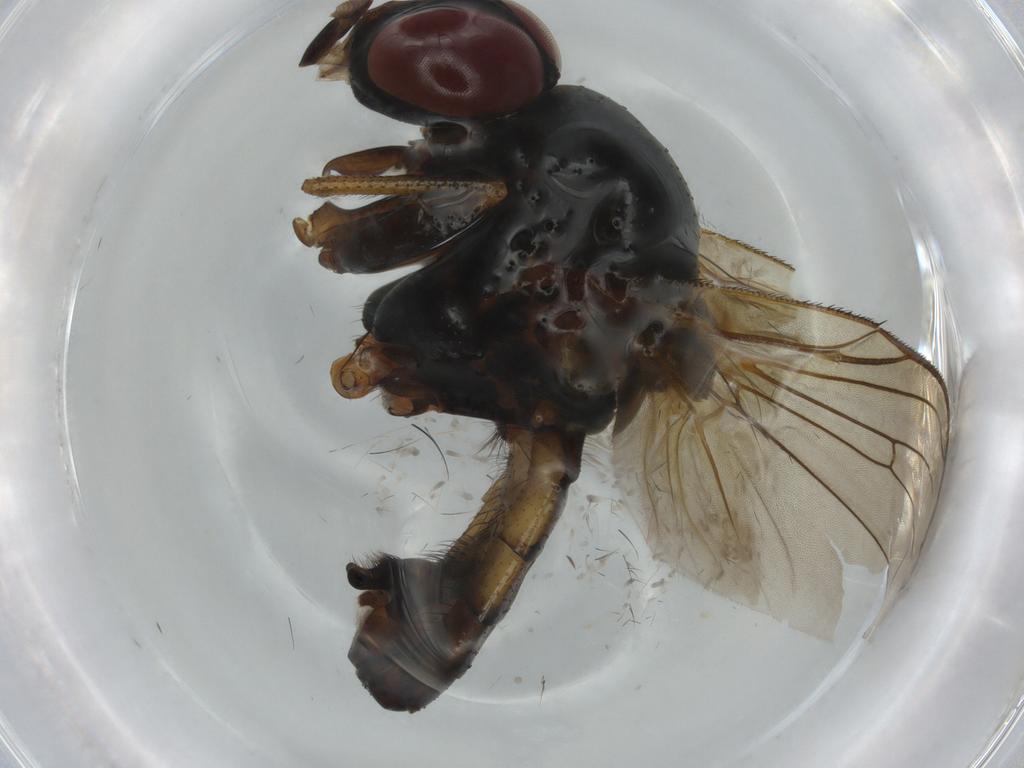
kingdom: Animalia
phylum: Arthropoda
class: Insecta
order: Diptera
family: Anthomyiidae
